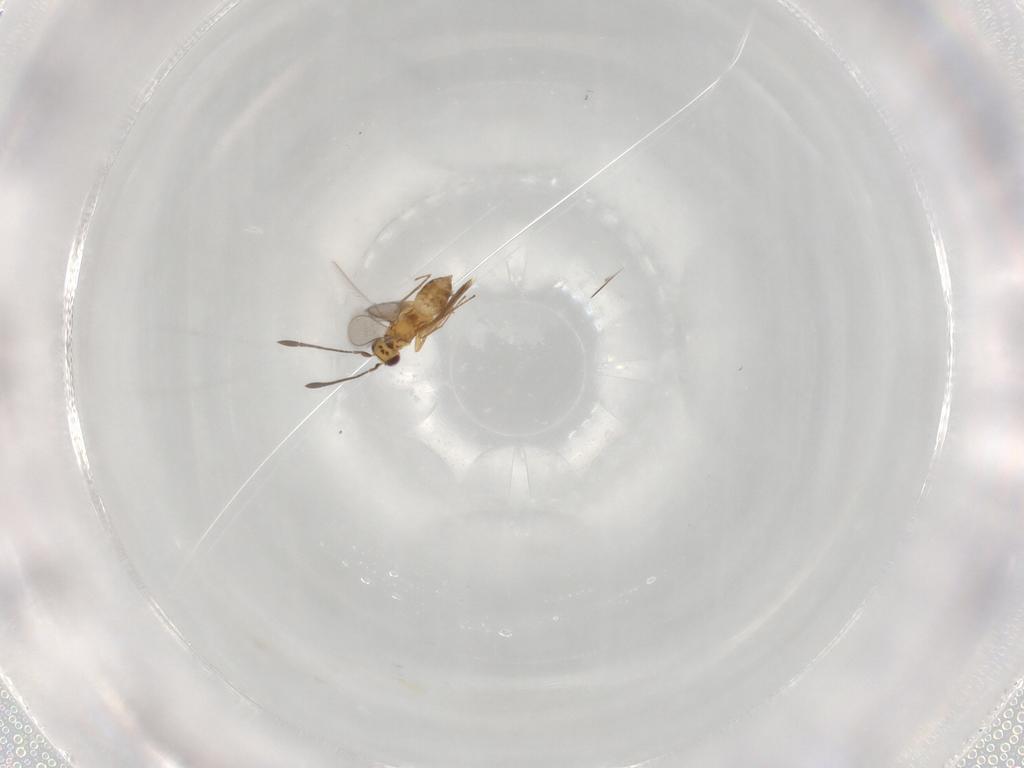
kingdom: Animalia
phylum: Arthropoda
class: Insecta
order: Hymenoptera
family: Mymaridae
